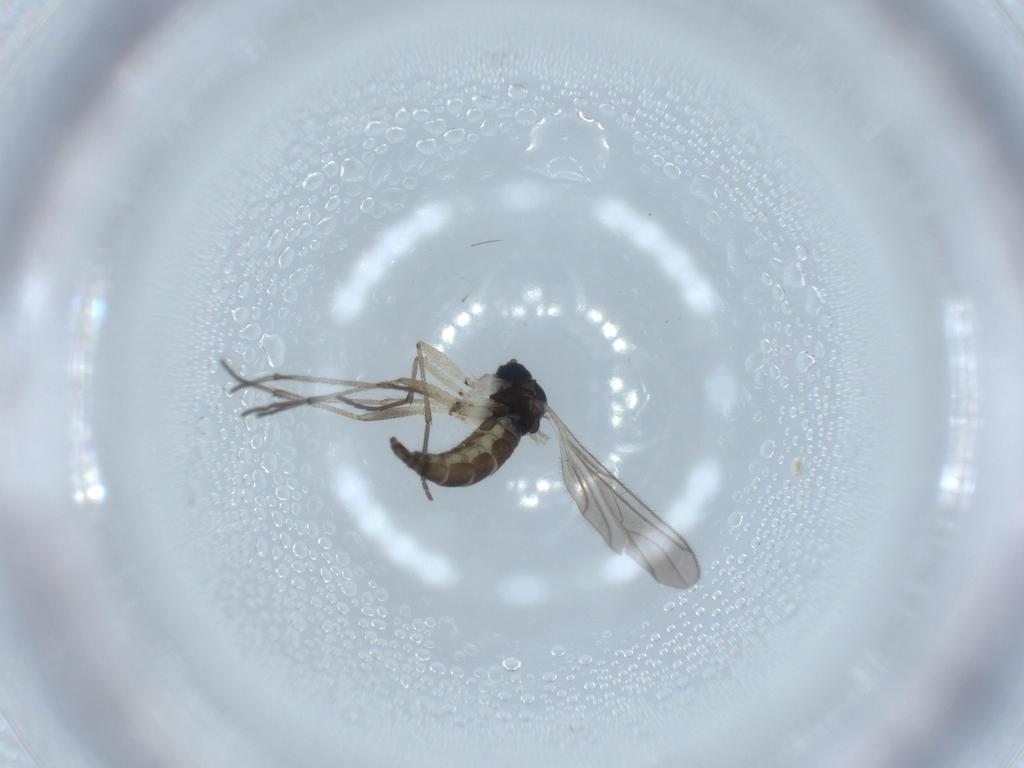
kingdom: Animalia
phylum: Arthropoda
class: Insecta
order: Diptera
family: Sciaridae
